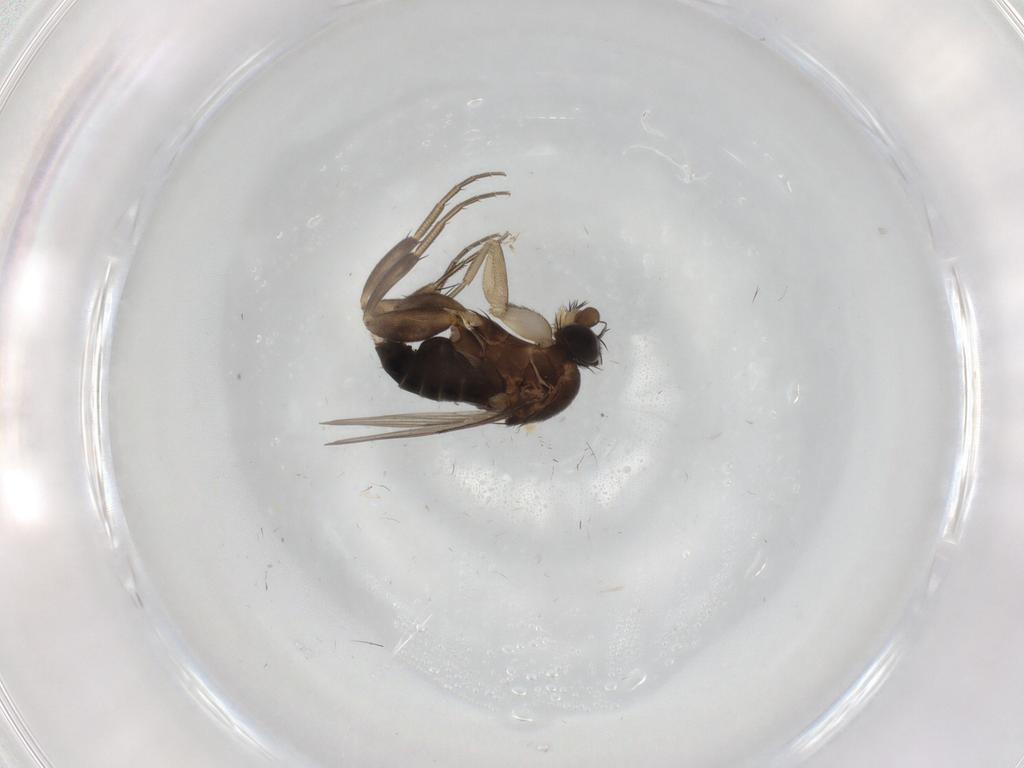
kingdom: Animalia
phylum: Arthropoda
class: Insecta
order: Diptera
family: Phoridae
